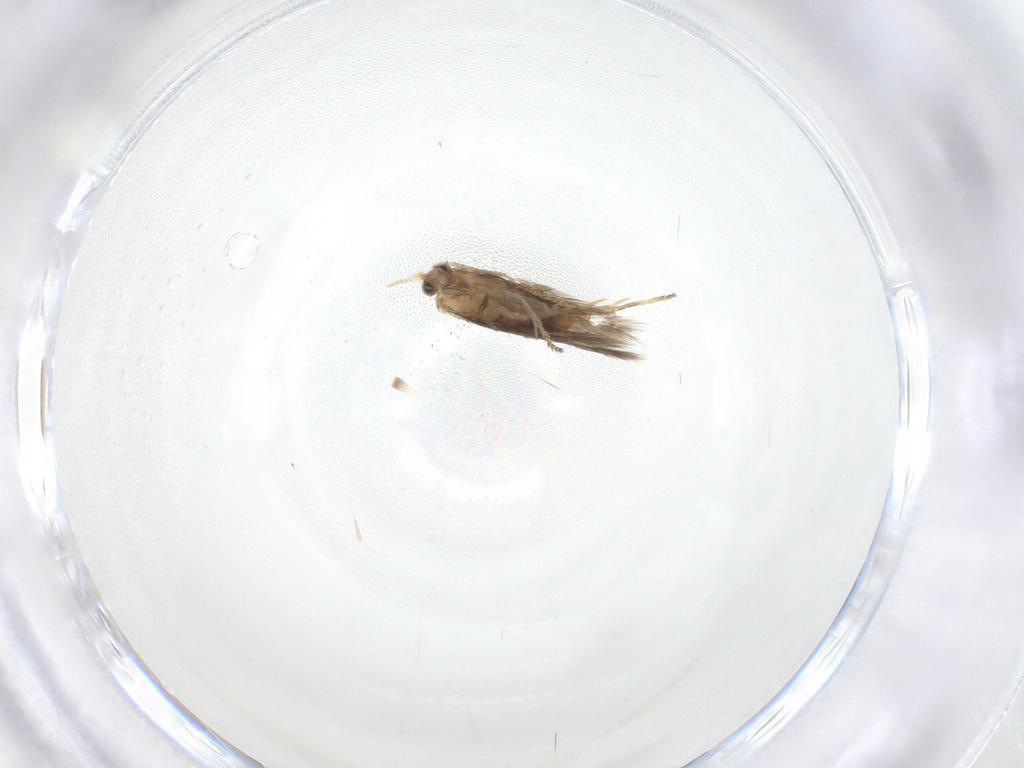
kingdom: Animalia
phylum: Arthropoda
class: Insecta
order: Lepidoptera
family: Nepticulidae
